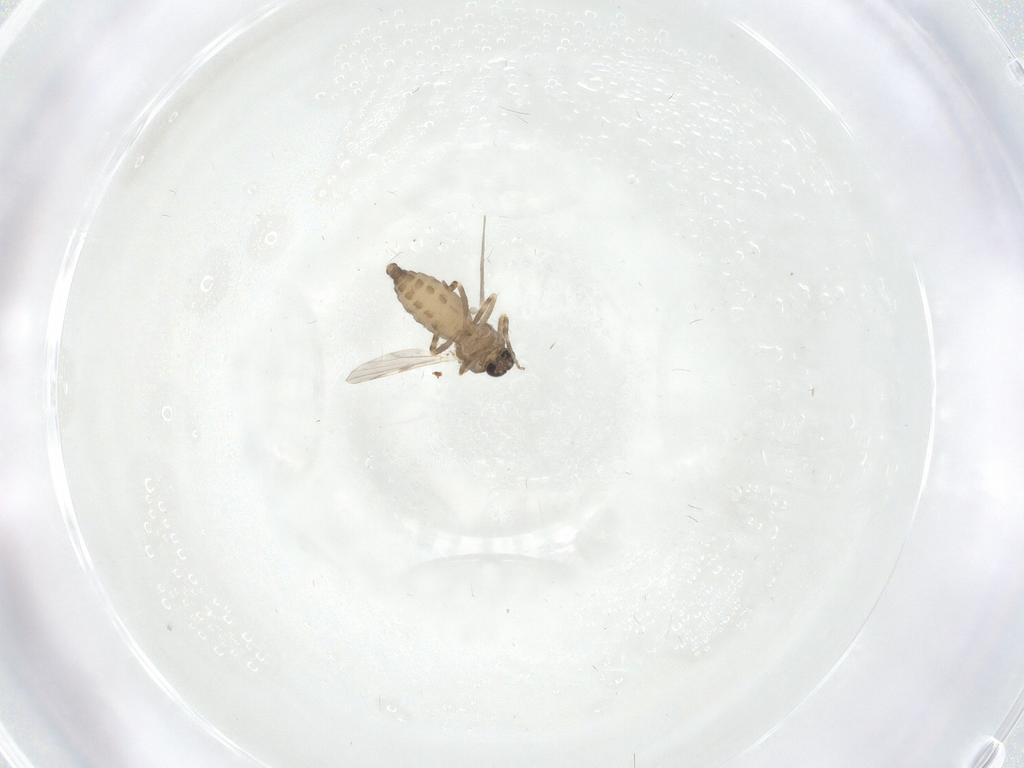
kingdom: Animalia
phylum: Arthropoda
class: Insecta
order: Diptera
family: Ceratopogonidae
